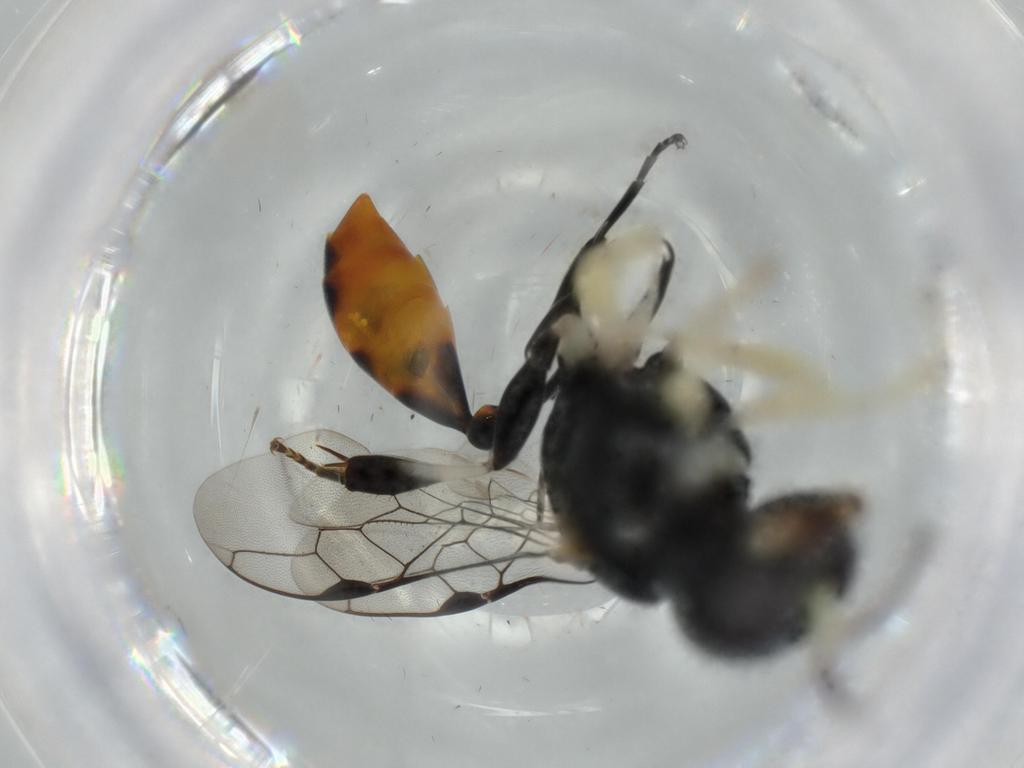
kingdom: Animalia
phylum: Arthropoda
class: Insecta
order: Hymenoptera
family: Crabronidae
